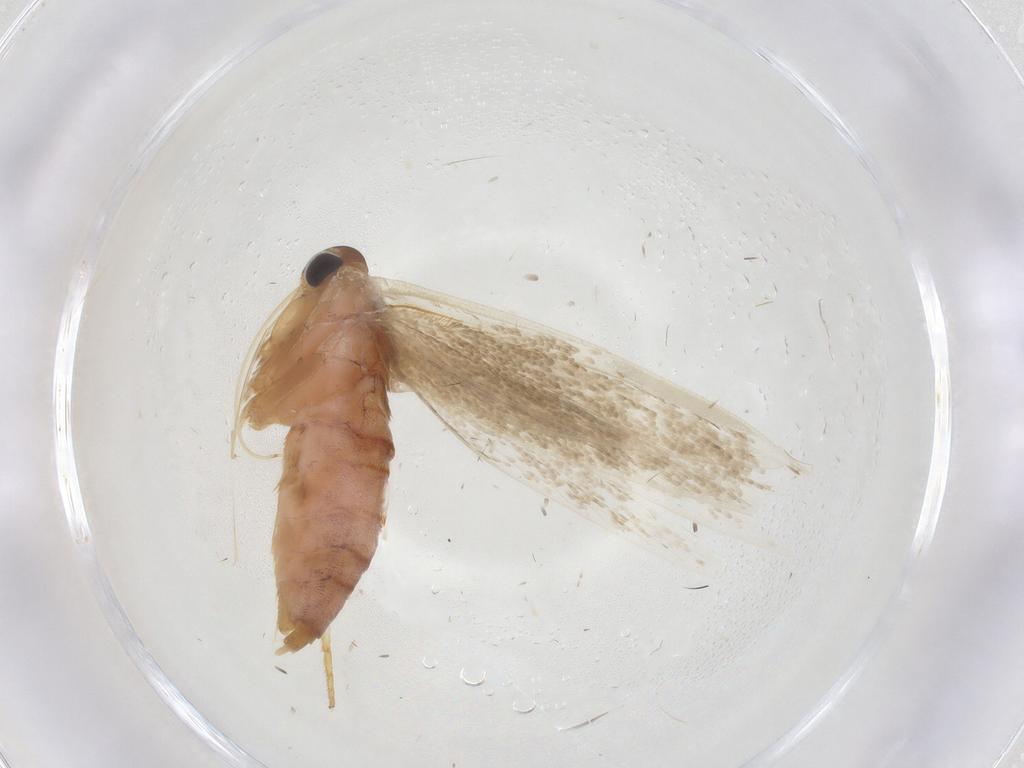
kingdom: Animalia
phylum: Arthropoda
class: Insecta
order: Lepidoptera
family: Blastobasidae
